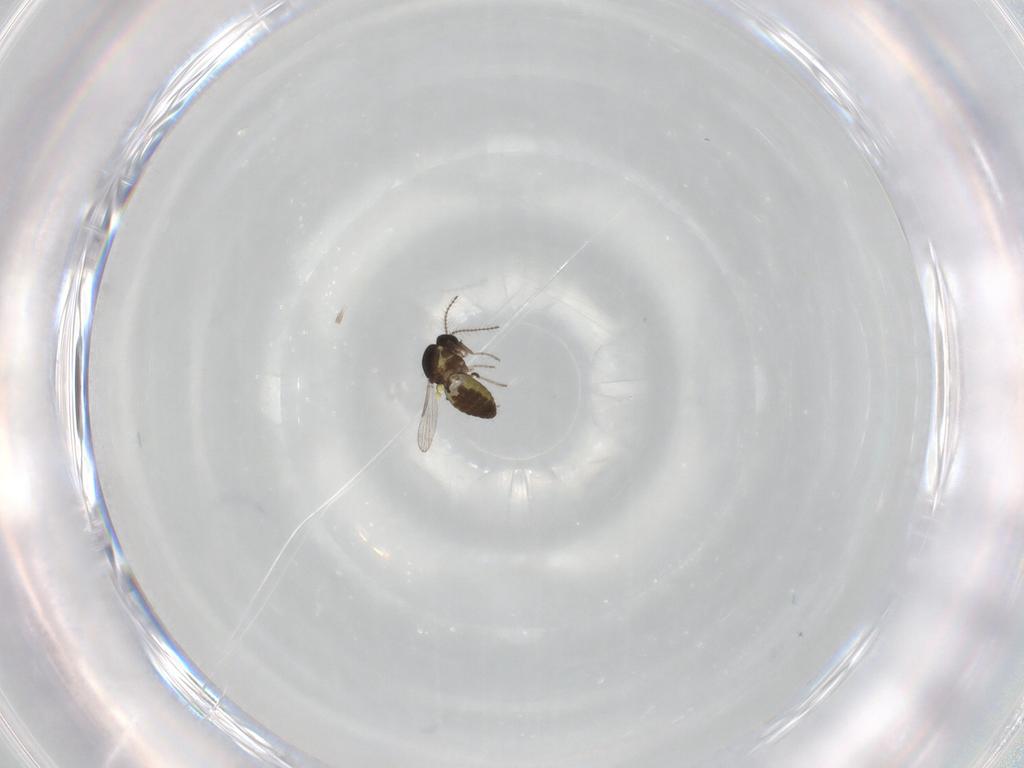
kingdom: Animalia
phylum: Arthropoda
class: Insecta
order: Diptera
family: Ceratopogonidae
